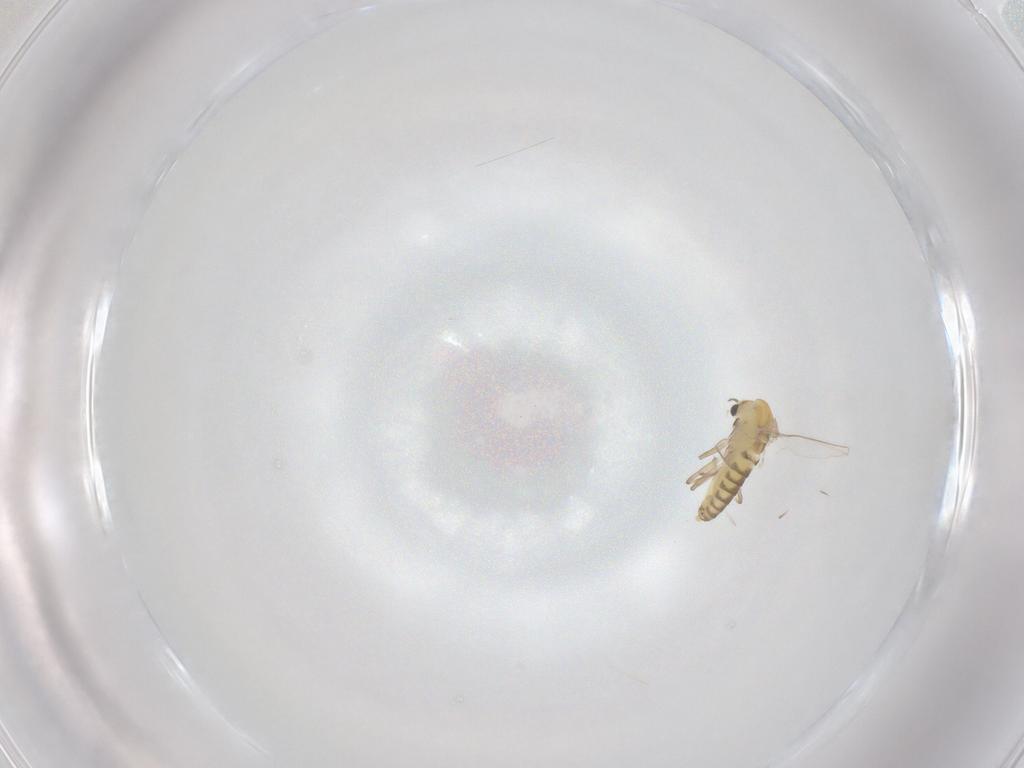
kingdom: Animalia
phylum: Arthropoda
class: Insecta
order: Diptera
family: Chironomidae
